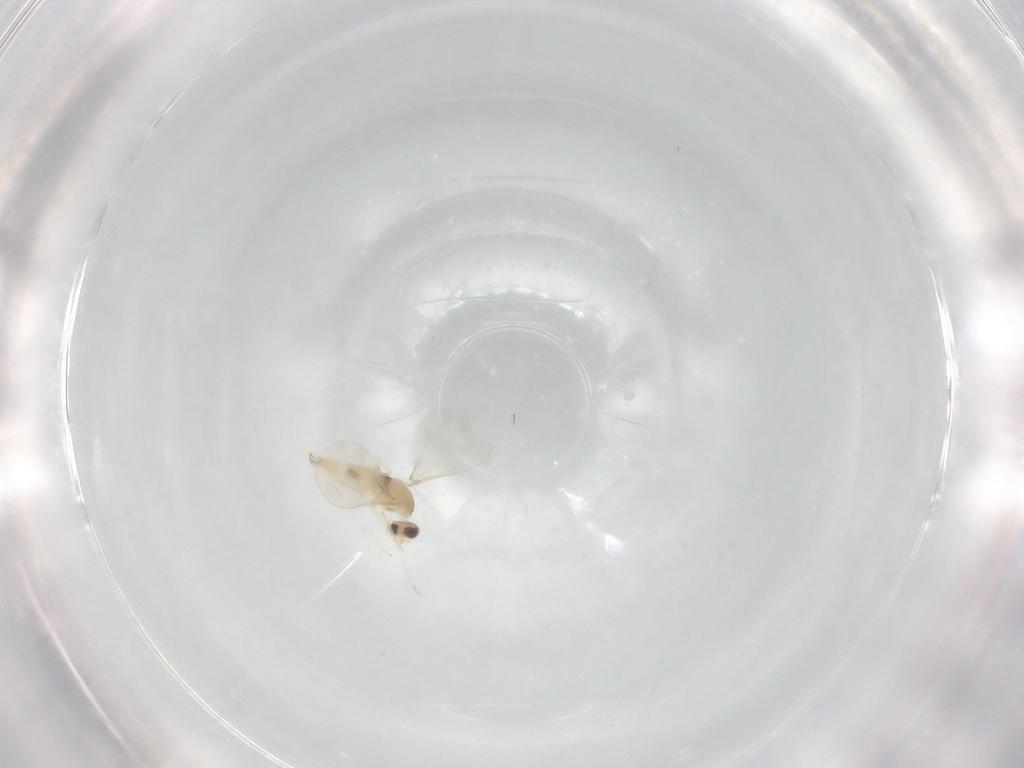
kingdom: Animalia
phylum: Arthropoda
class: Insecta
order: Diptera
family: Cecidomyiidae
